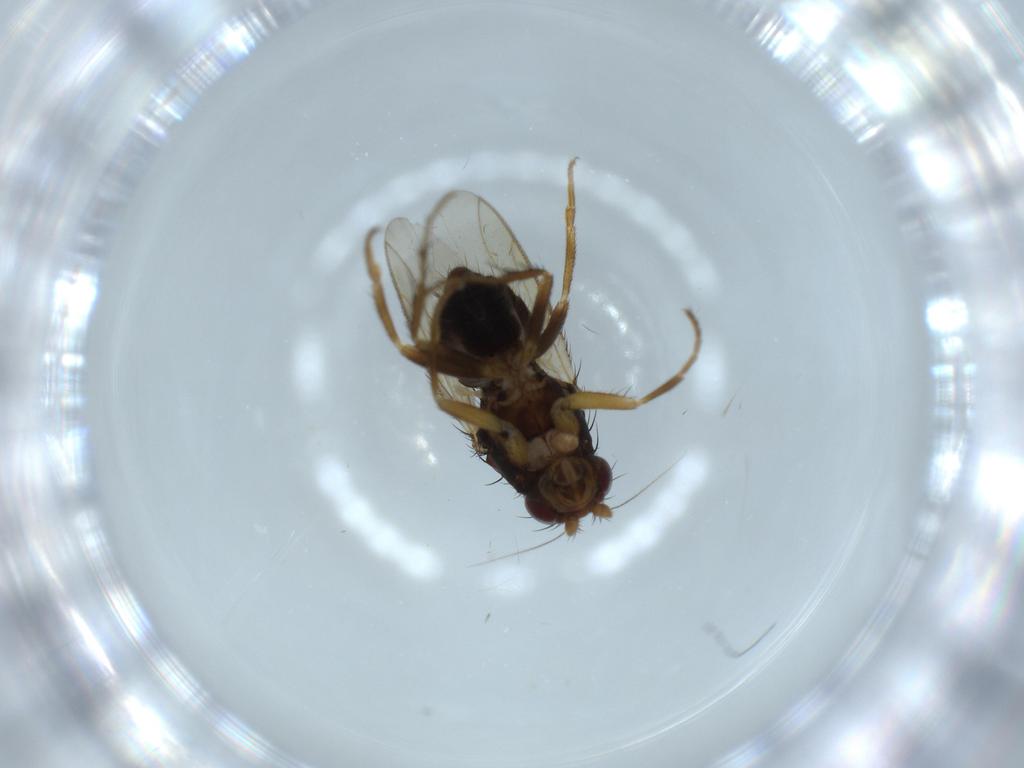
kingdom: Animalia
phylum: Arthropoda
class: Insecta
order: Diptera
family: Sphaeroceridae
